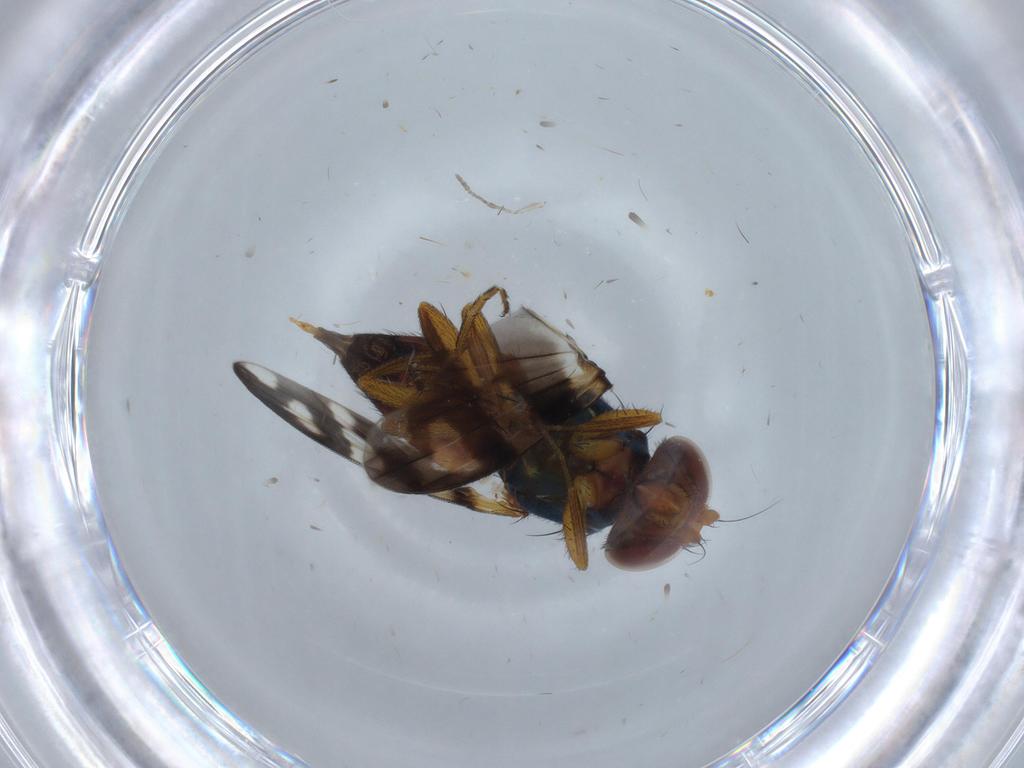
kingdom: Animalia
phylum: Arthropoda
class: Insecta
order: Diptera
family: Ulidiidae
